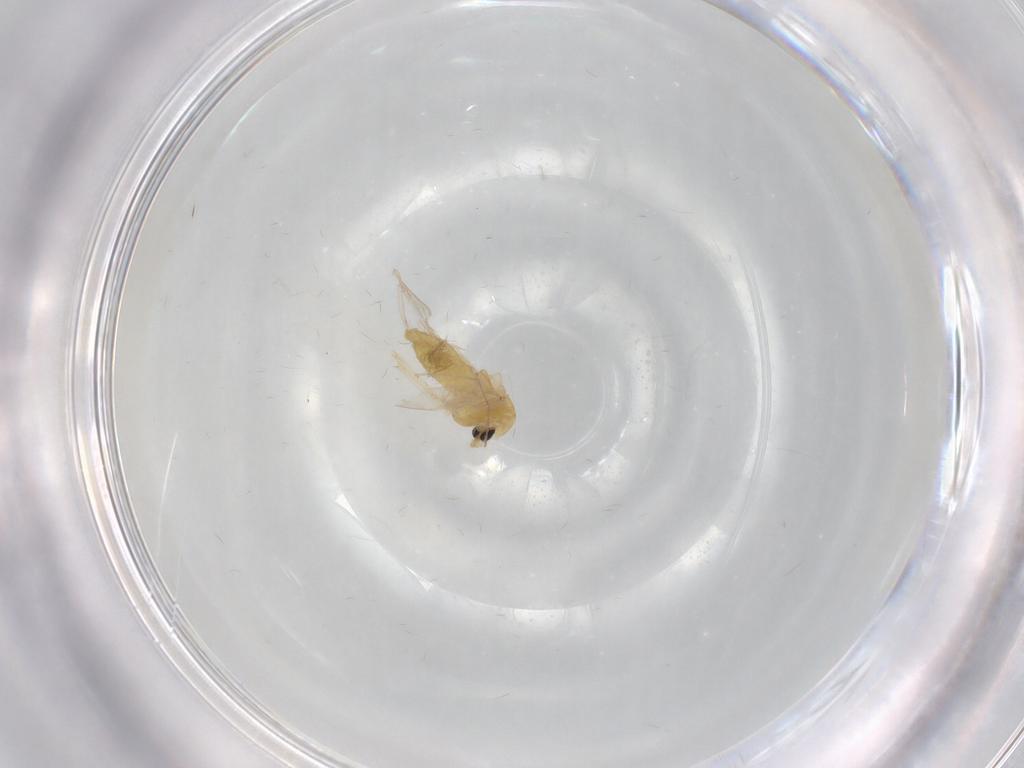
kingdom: Animalia
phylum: Arthropoda
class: Insecta
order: Diptera
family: Chironomidae
